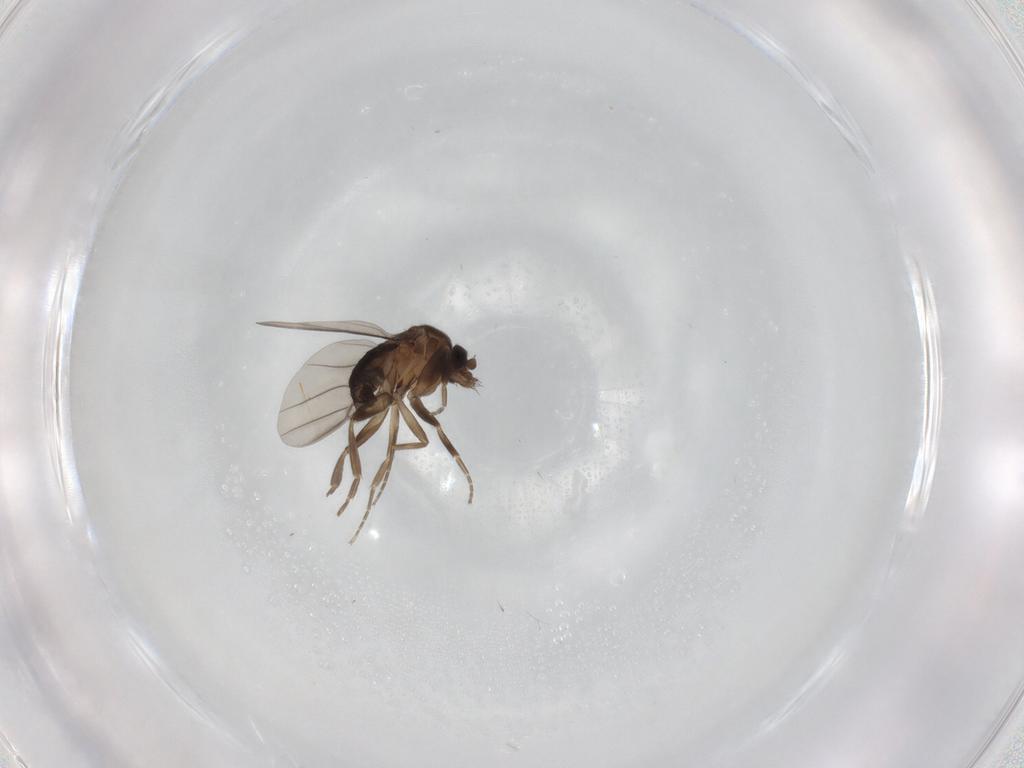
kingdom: Animalia
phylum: Arthropoda
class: Insecta
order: Diptera
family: Phoridae
